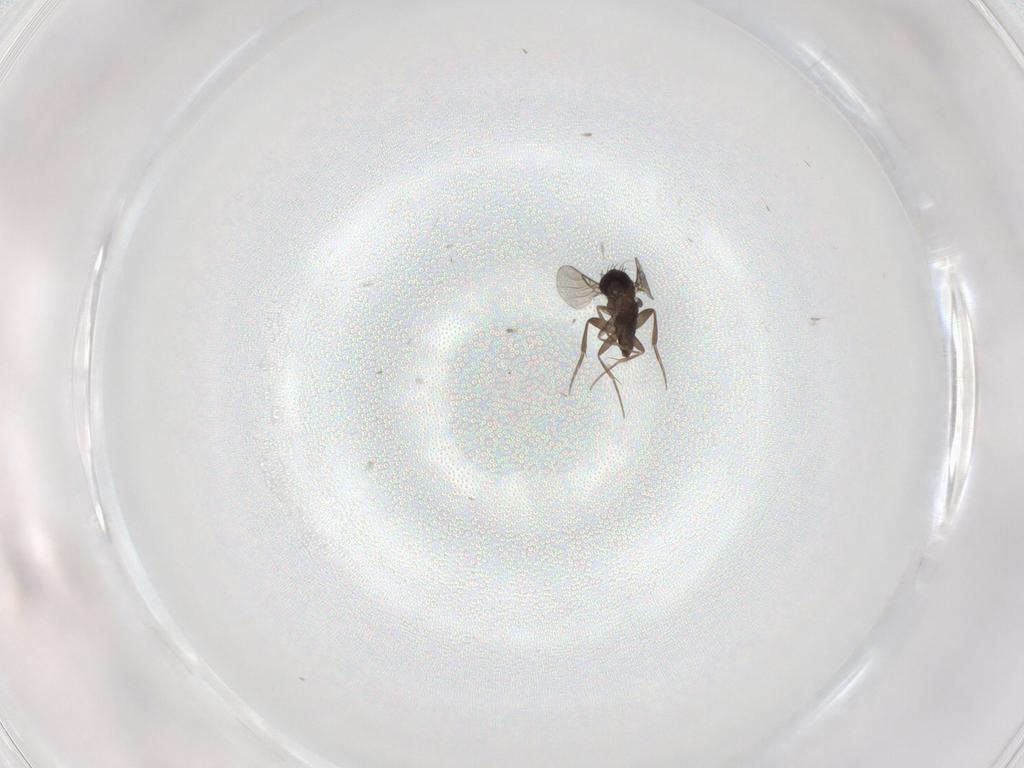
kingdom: Animalia
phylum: Arthropoda
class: Insecta
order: Diptera
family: Phoridae
